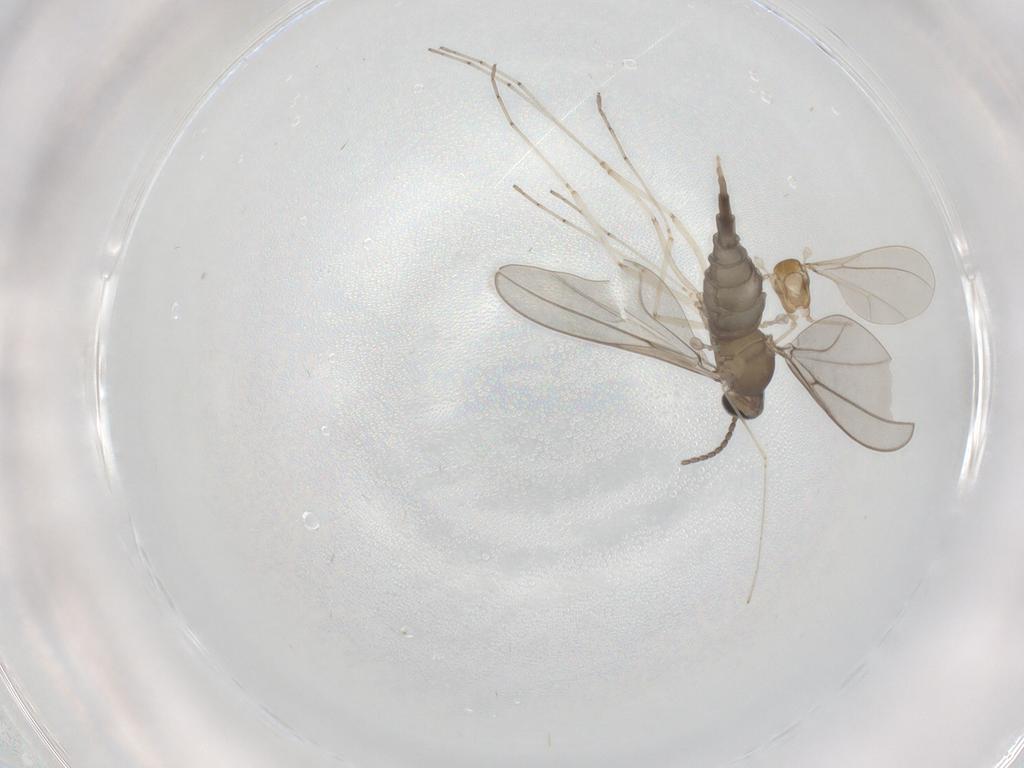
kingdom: Animalia
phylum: Arthropoda
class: Insecta
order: Diptera
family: Cecidomyiidae
